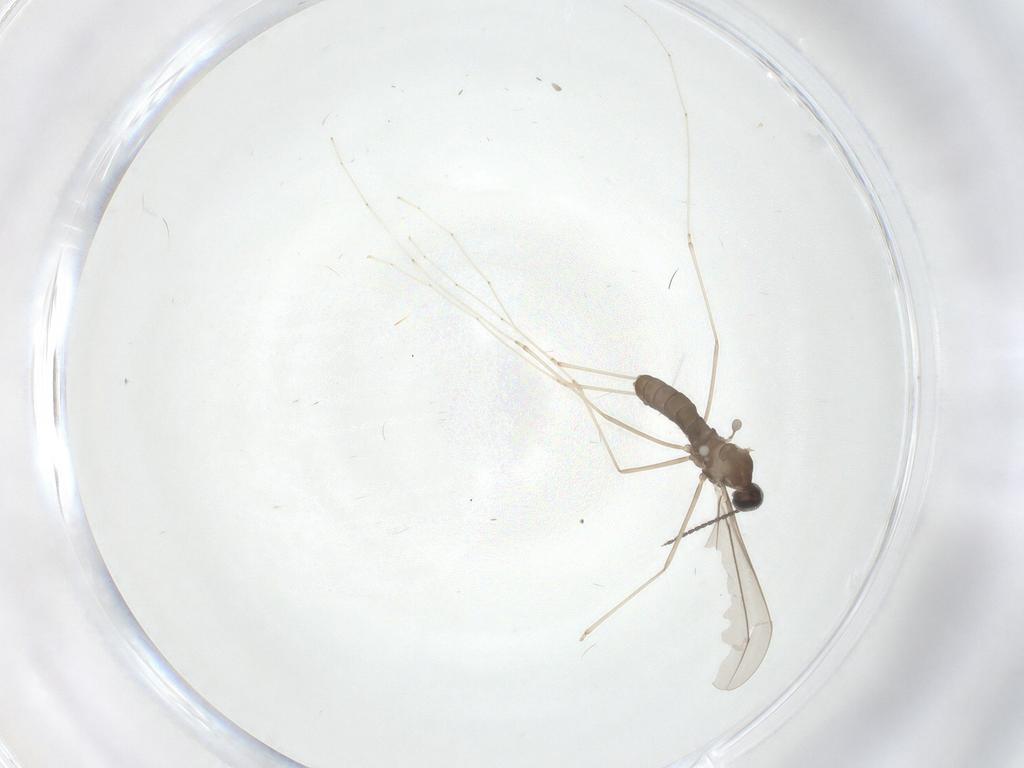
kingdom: Animalia
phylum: Arthropoda
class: Insecta
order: Diptera
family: Cecidomyiidae
